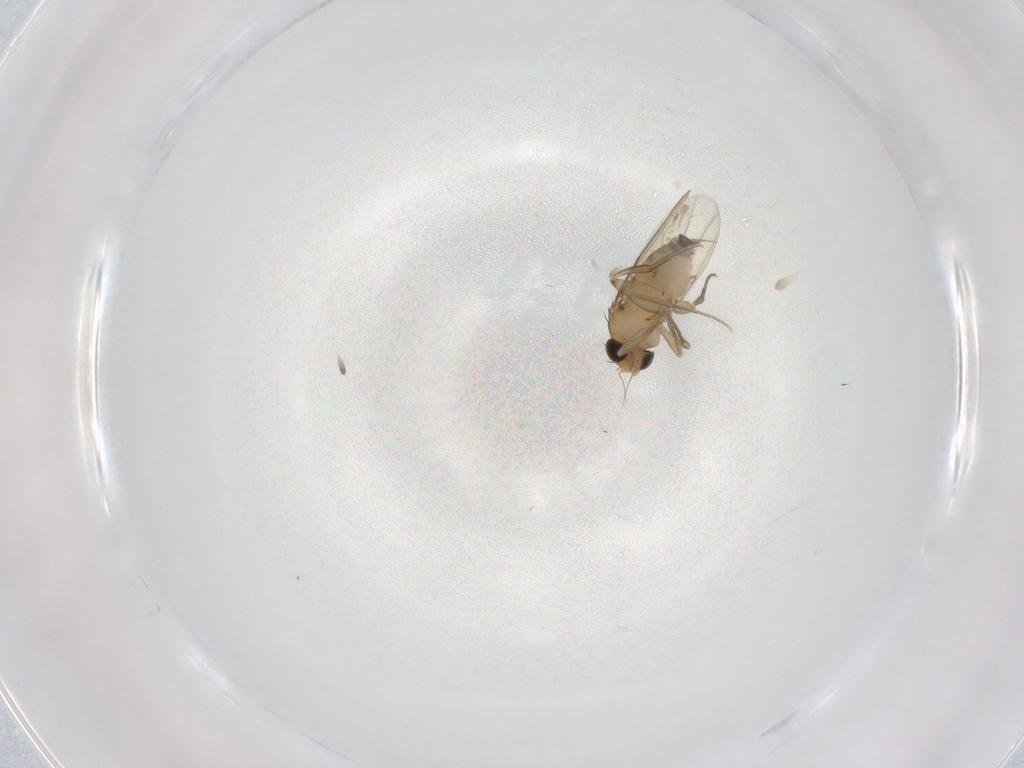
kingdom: Animalia
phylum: Arthropoda
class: Insecta
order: Diptera
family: Phoridae
